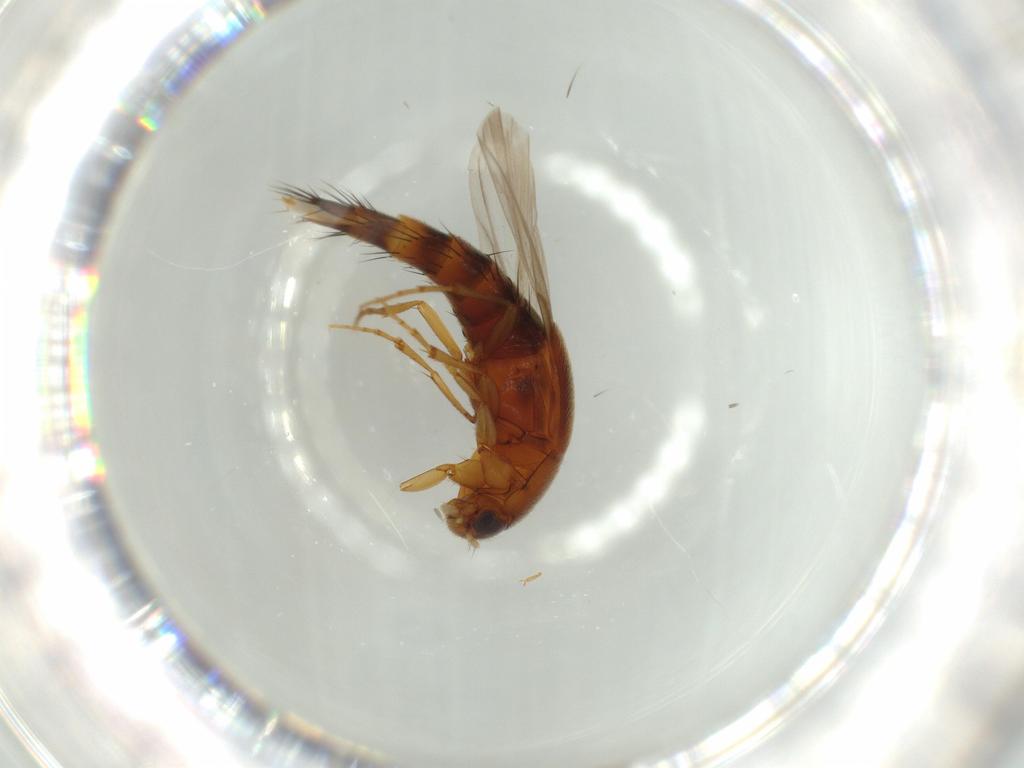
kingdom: Animalia
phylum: Arthropoda
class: Insecta
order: Coleoptera
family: Staphylinidae
